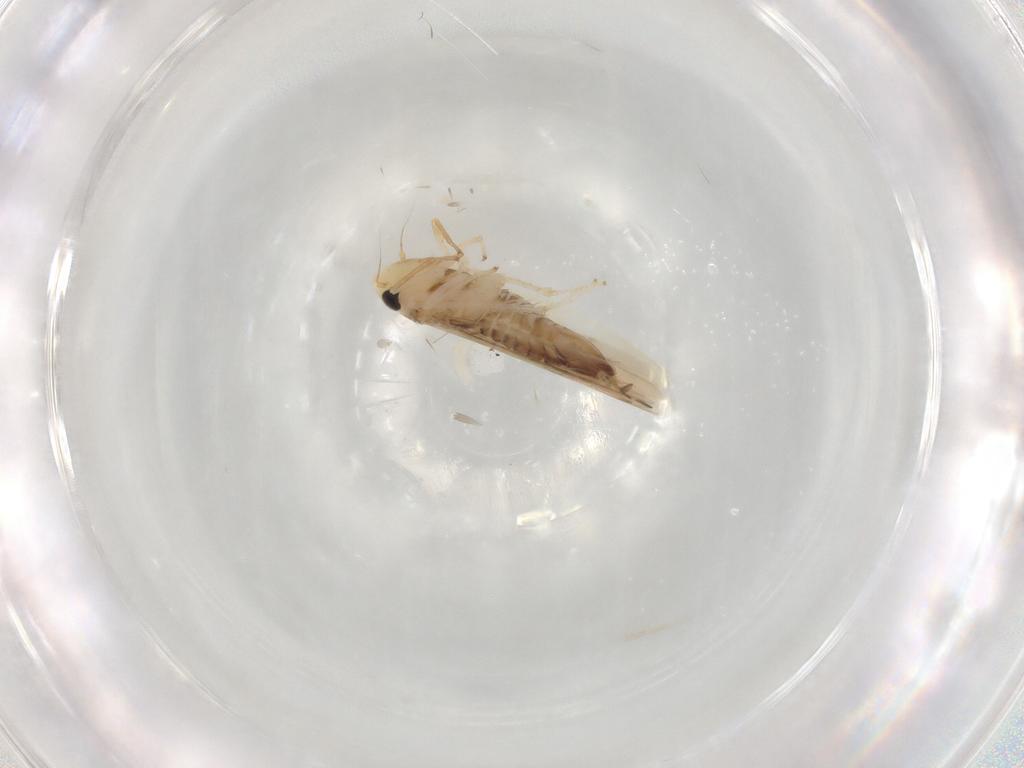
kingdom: Animalia
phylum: Arthropoda
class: Insecta
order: Hemiptera
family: Cicadellidae
